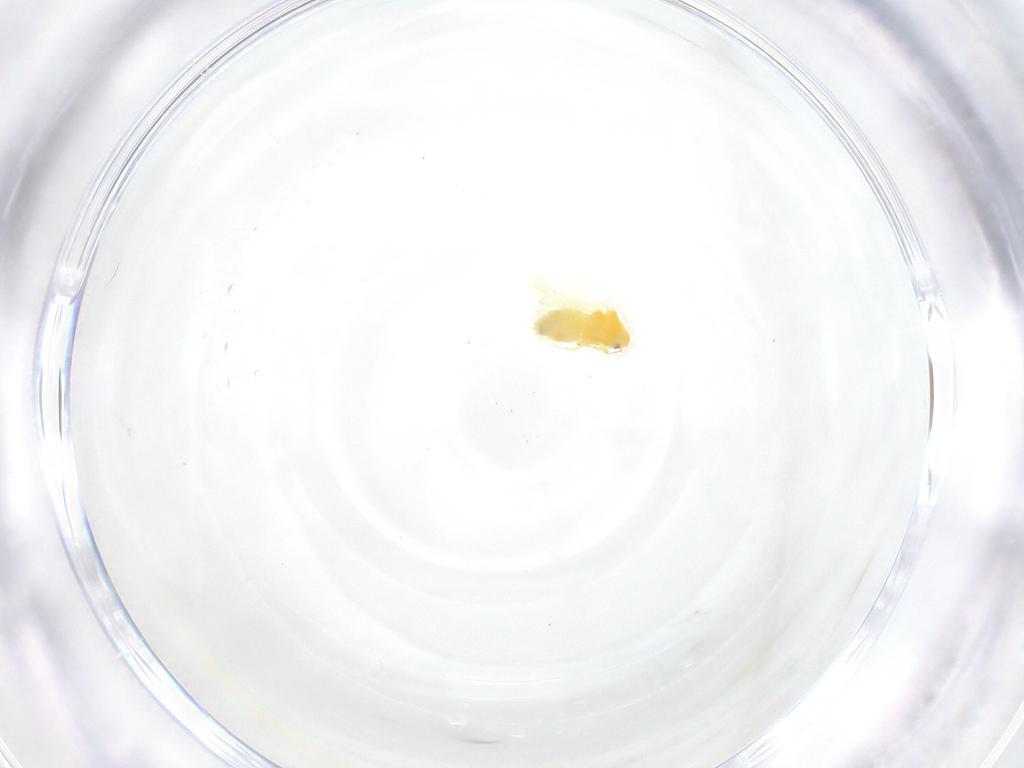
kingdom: Animalia
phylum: Arthropoda
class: Insecta
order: Hemiptera
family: Aleyrodidae
